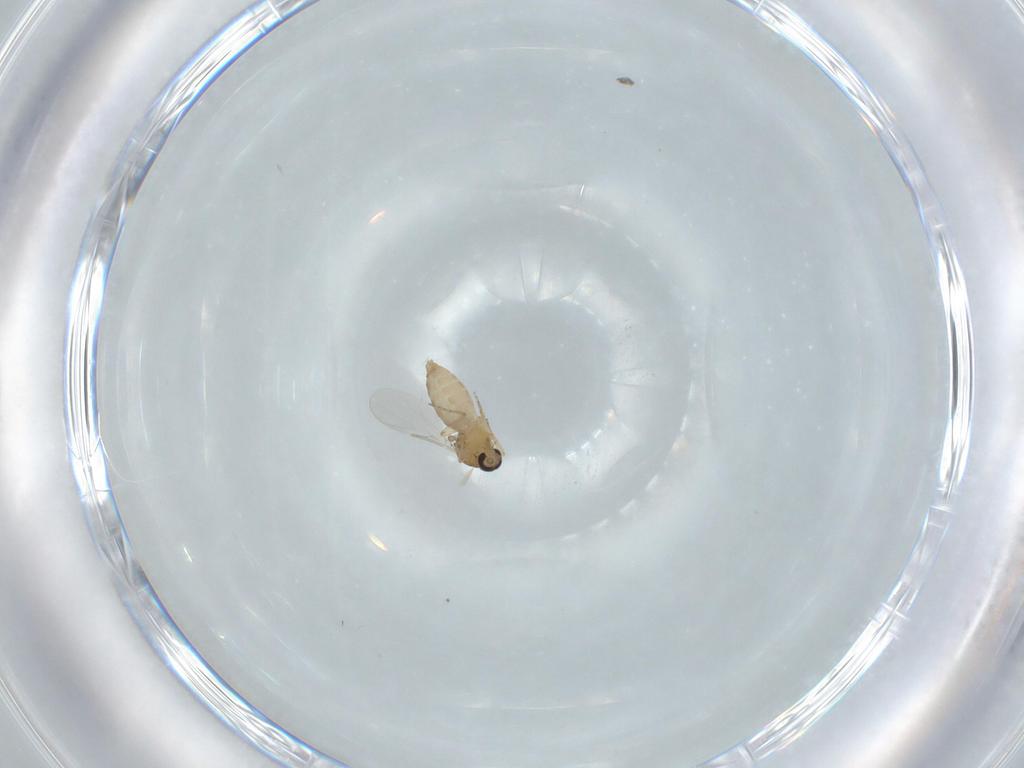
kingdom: Animalia
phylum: Arthropoda
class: Insecta
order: Diptera
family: Ceratopogonidae
